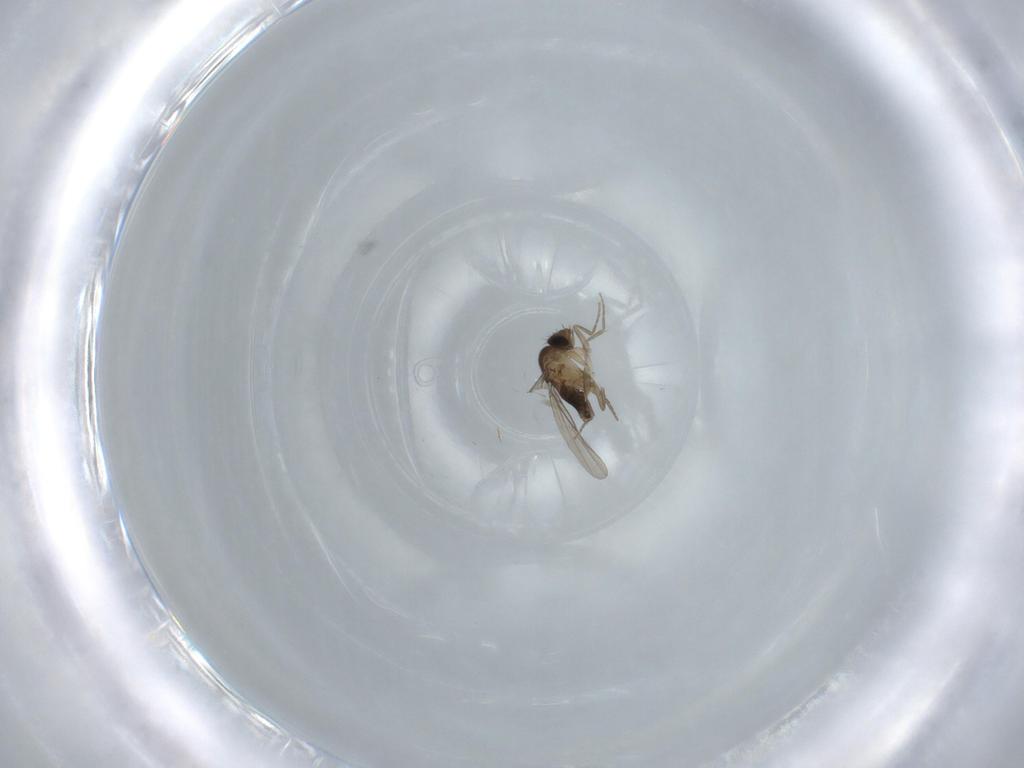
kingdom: Animalia
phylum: Arthropoda
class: Insecta
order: Diptera
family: Phoridae
